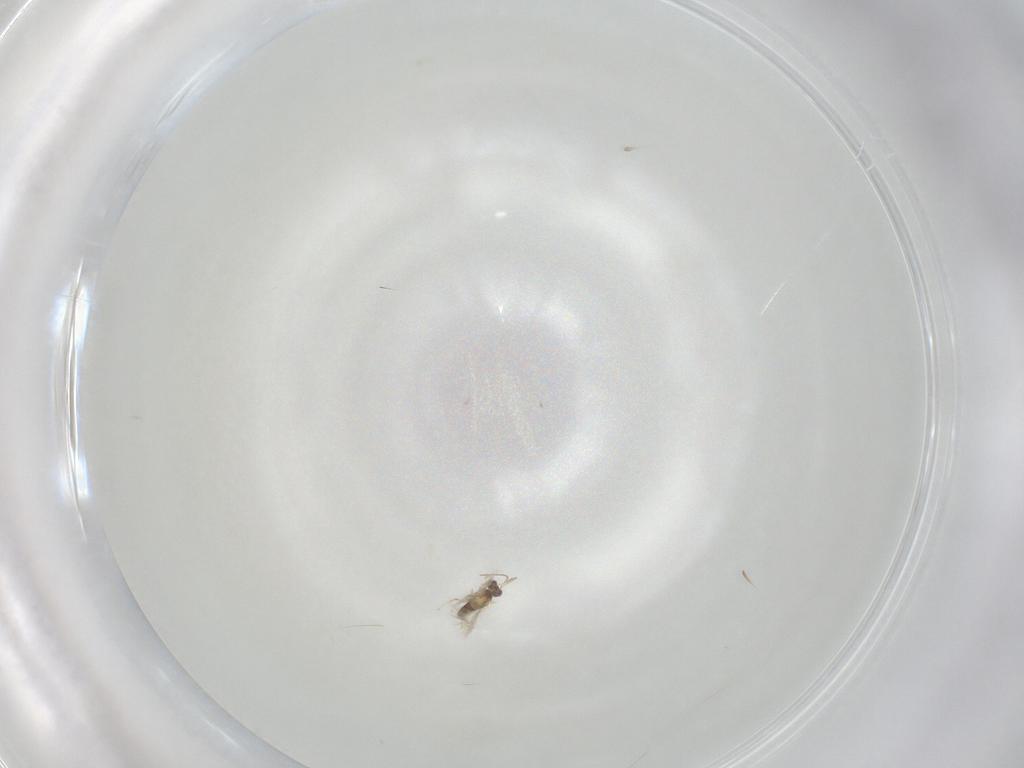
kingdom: Animalia
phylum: Arthropoda
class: Insecta
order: Hymenoptera
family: Mymaridae
